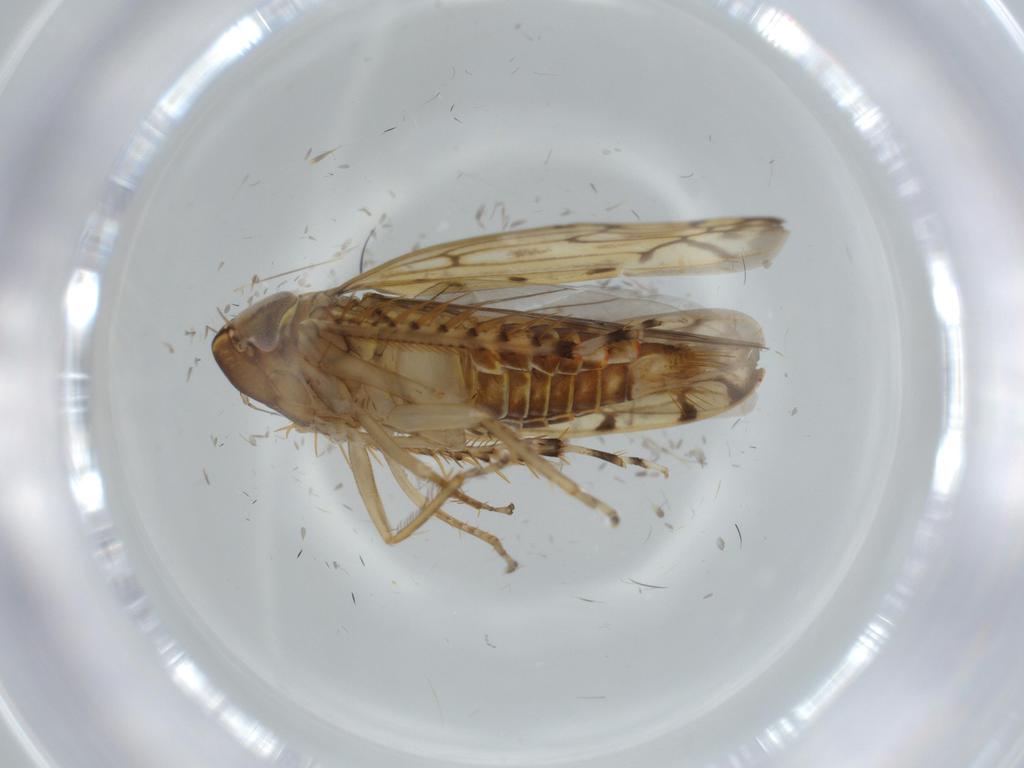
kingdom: Animalia
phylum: Arthropoda
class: Insecta
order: Hemiptera
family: Cicadellidae
